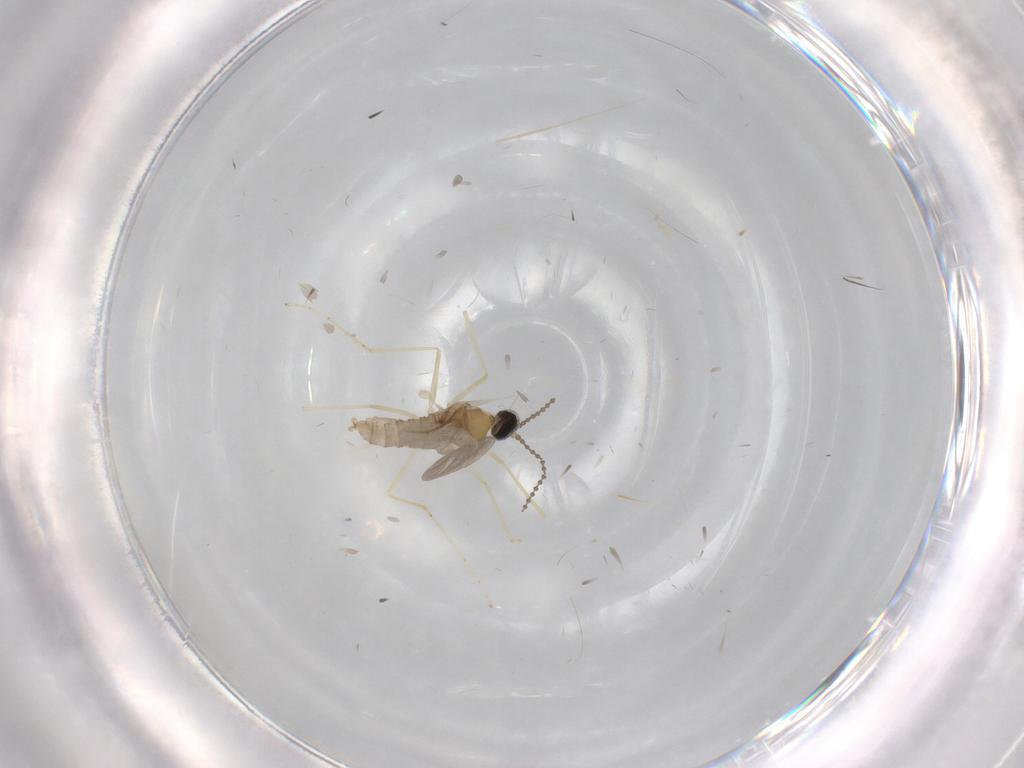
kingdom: Animalia
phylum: Arthropoda
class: Insecta
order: Diptera
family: Cecidomyiidae
